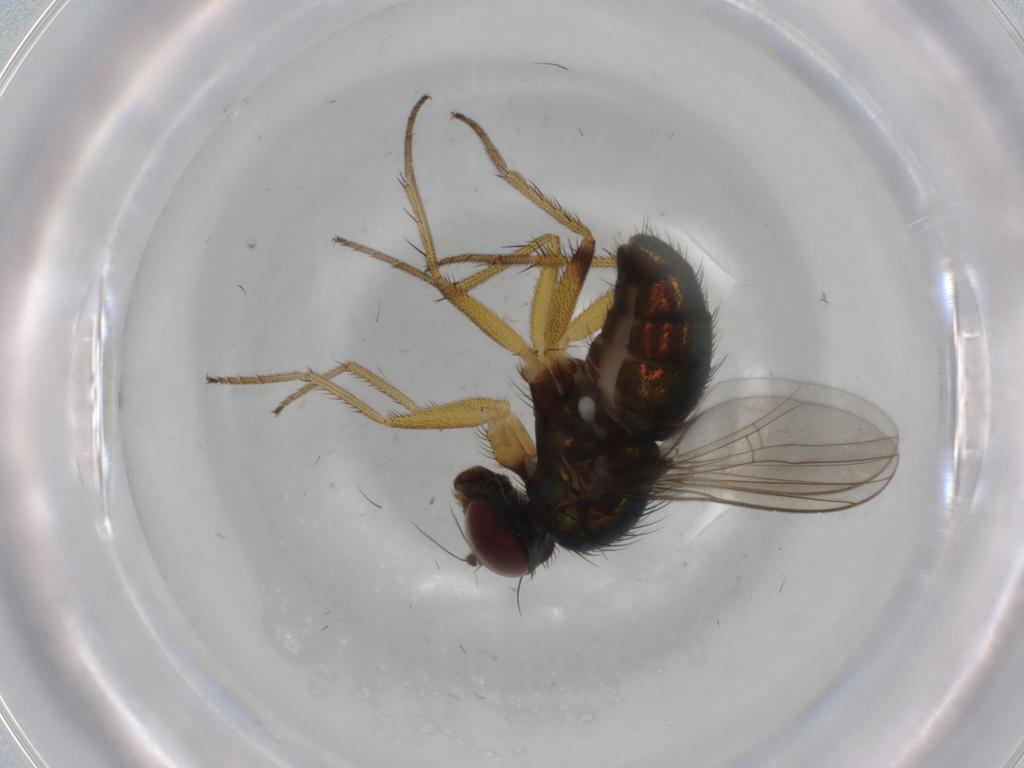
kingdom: Animalia
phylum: Arthropoda
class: Insecta
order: Diptera
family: Dolichopodidae
